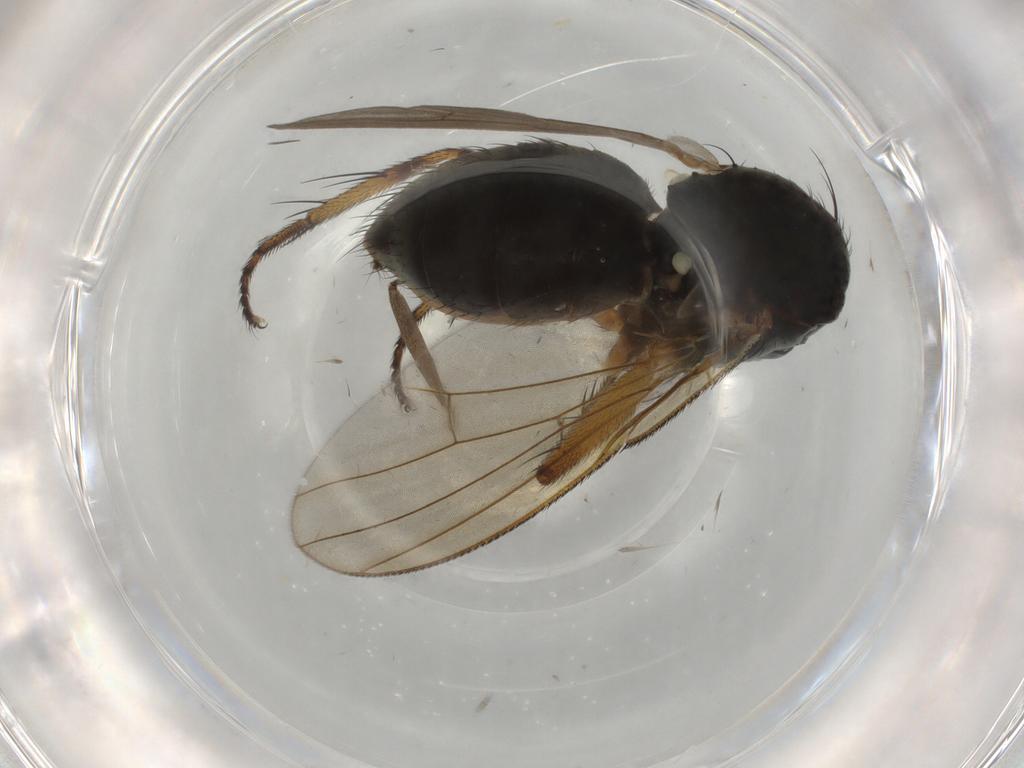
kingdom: Animalia
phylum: Arthropoda
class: Insecta
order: Diptera
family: Muscidae
